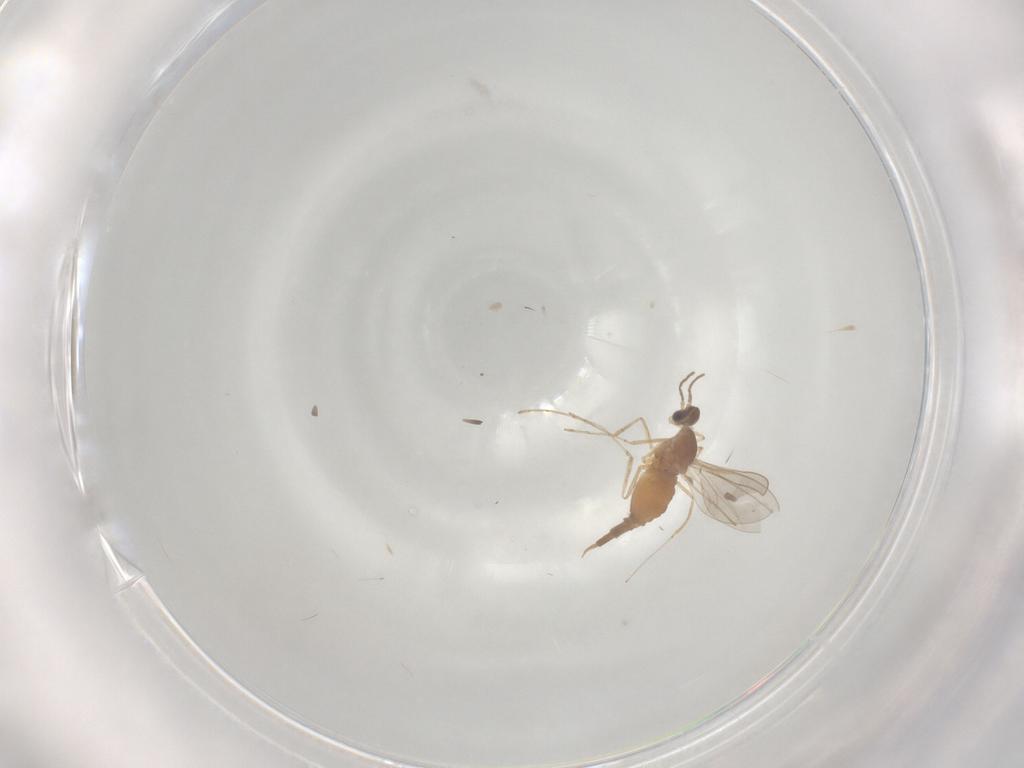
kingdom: Animalia
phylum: Arthropoda
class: Insecta
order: Diptera
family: Cecidomyiidae
